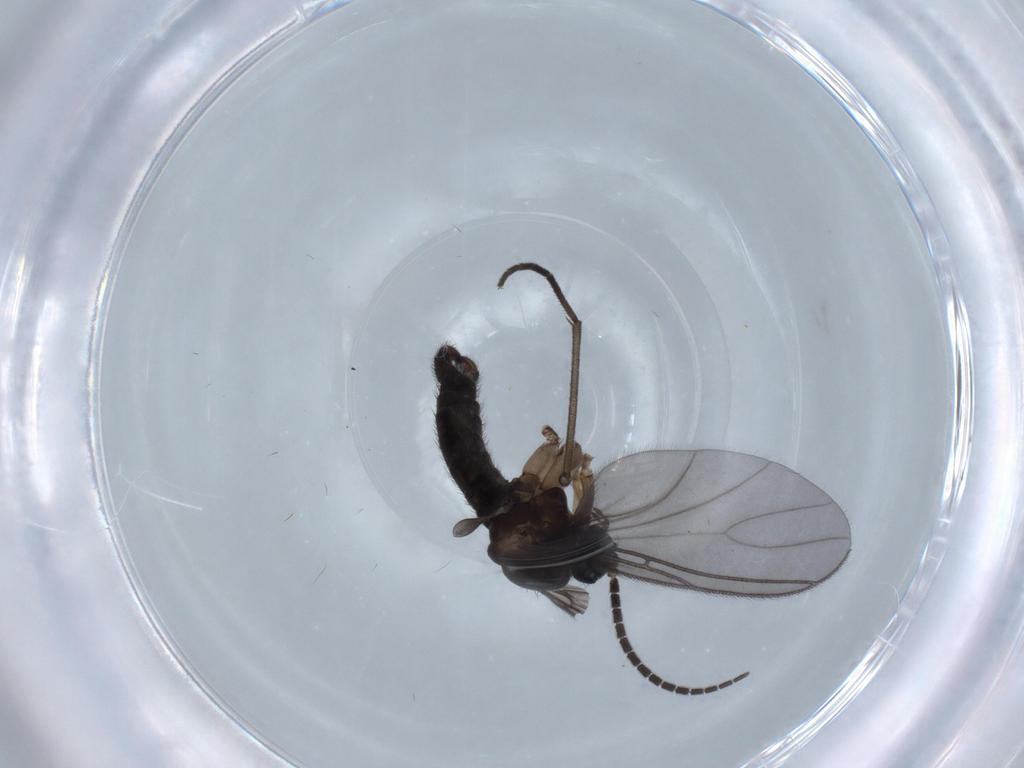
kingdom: Animalia
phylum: Arthropoda
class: Insecta
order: Diptera
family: Sciaridae
